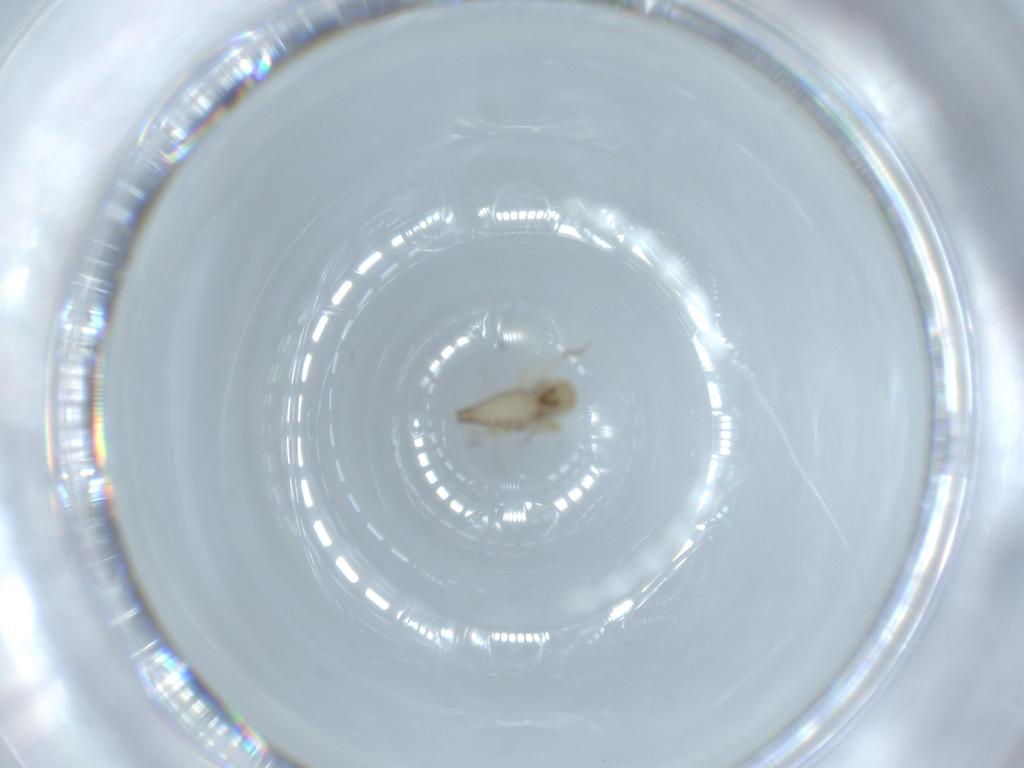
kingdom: Animalia
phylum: Arthropoda
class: Insecta
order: Diptera
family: Ceratopogonidae
